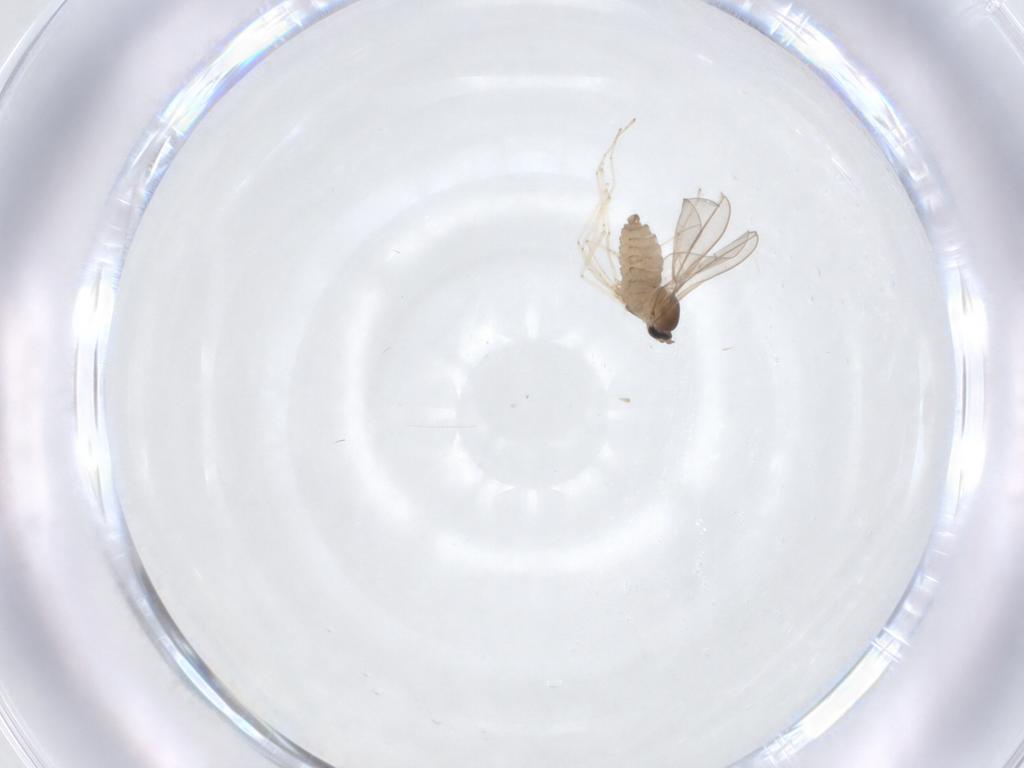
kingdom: Animalia
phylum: Arthropoda
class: Insecta
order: Diptera
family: Cecidomyiidae
